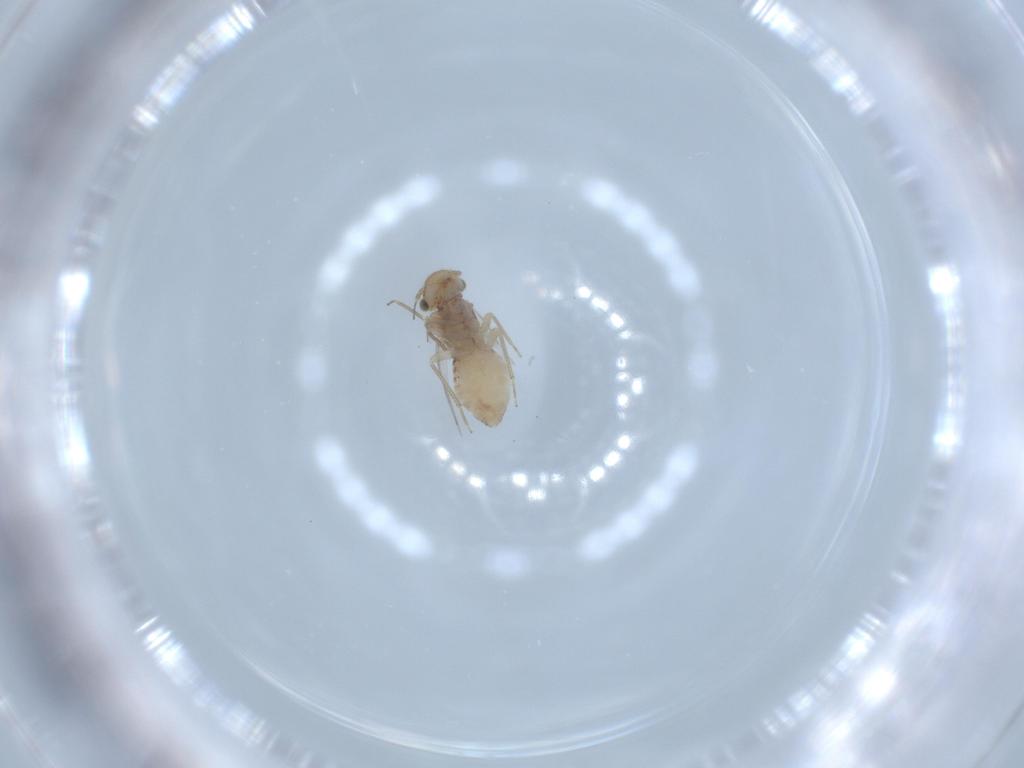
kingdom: Animalia
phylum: Arthropoda
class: Insecta
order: Psocodea
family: Ectopsocidae
